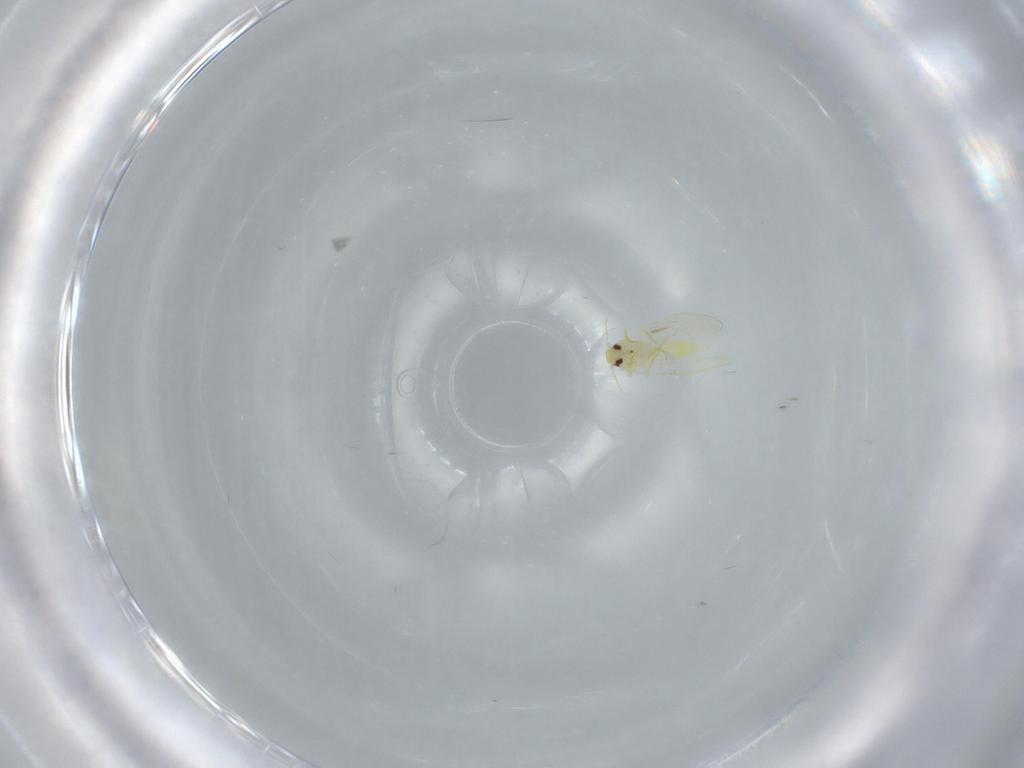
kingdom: Animalia
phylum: Arthropoda
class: Insecta
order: Hemiptera
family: Aleyrodidae
